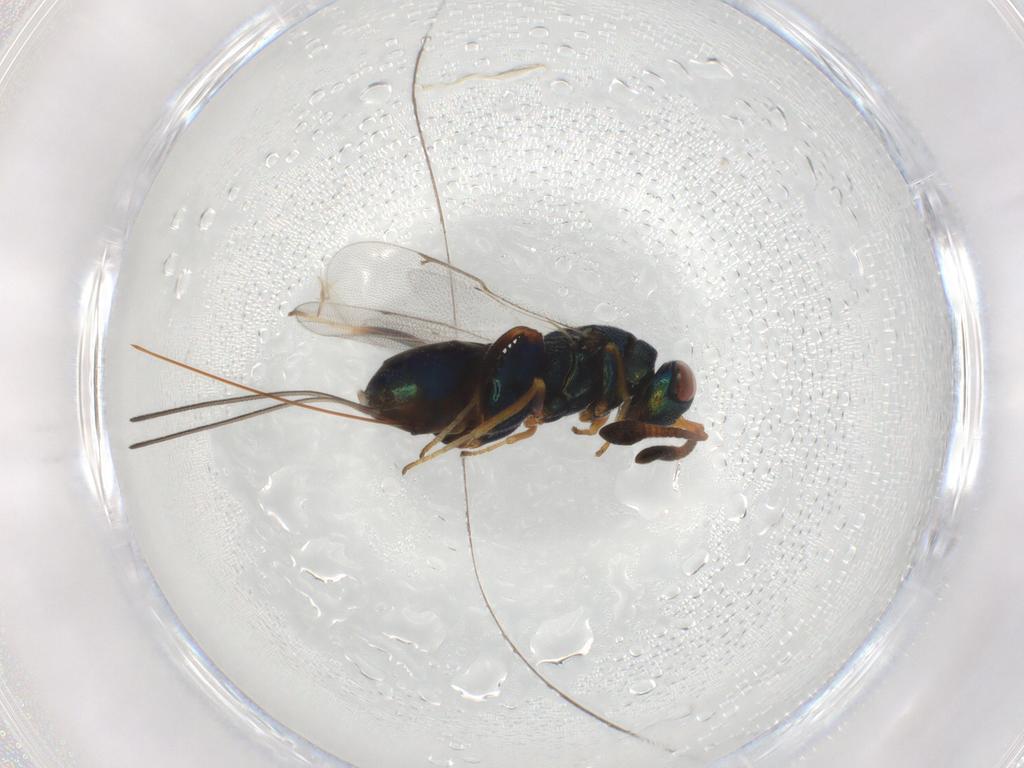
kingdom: Animalia
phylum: Arthropoda
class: Insecta
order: Hymenoptera
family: Torymidae
